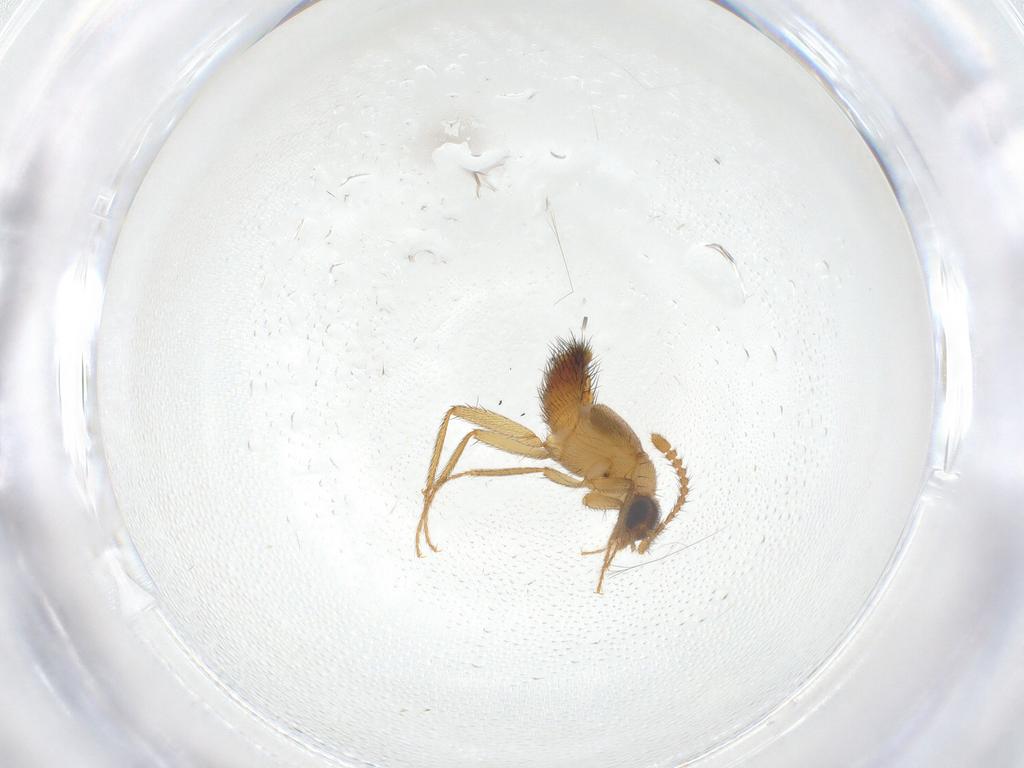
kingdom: Animalia
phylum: Arthropoda
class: Insecta
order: Coleoptera
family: Staphylinidae
